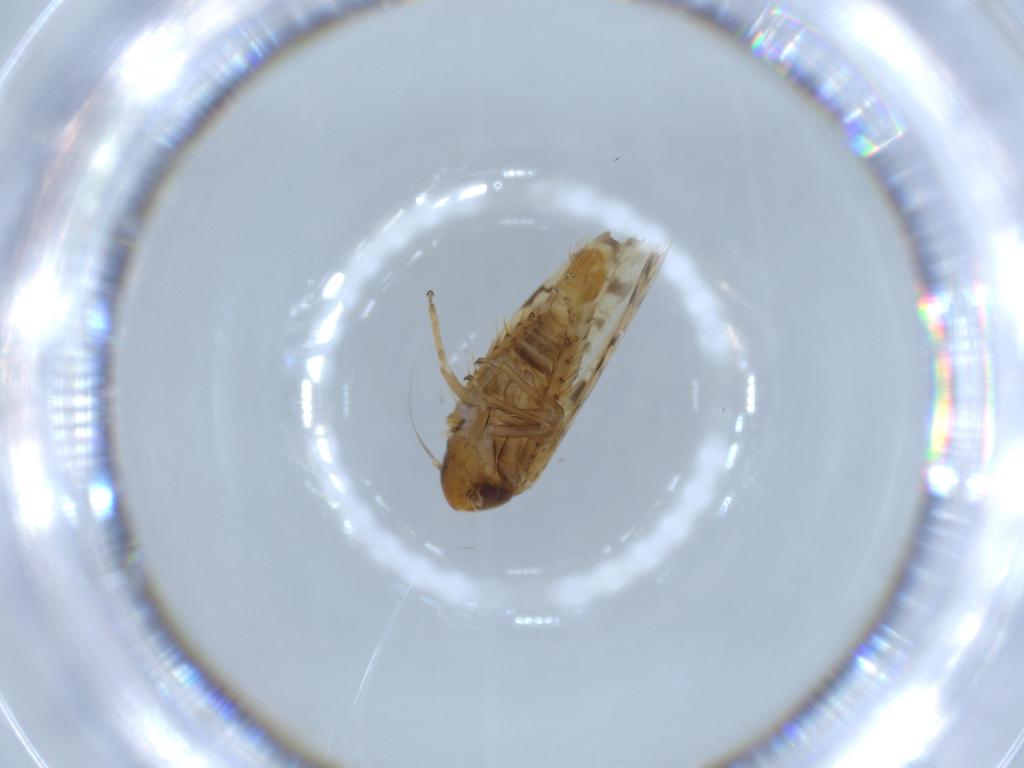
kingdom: Animalia
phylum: Arthropoda
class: Insecta
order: Hemiptera
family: Cicadellidae
